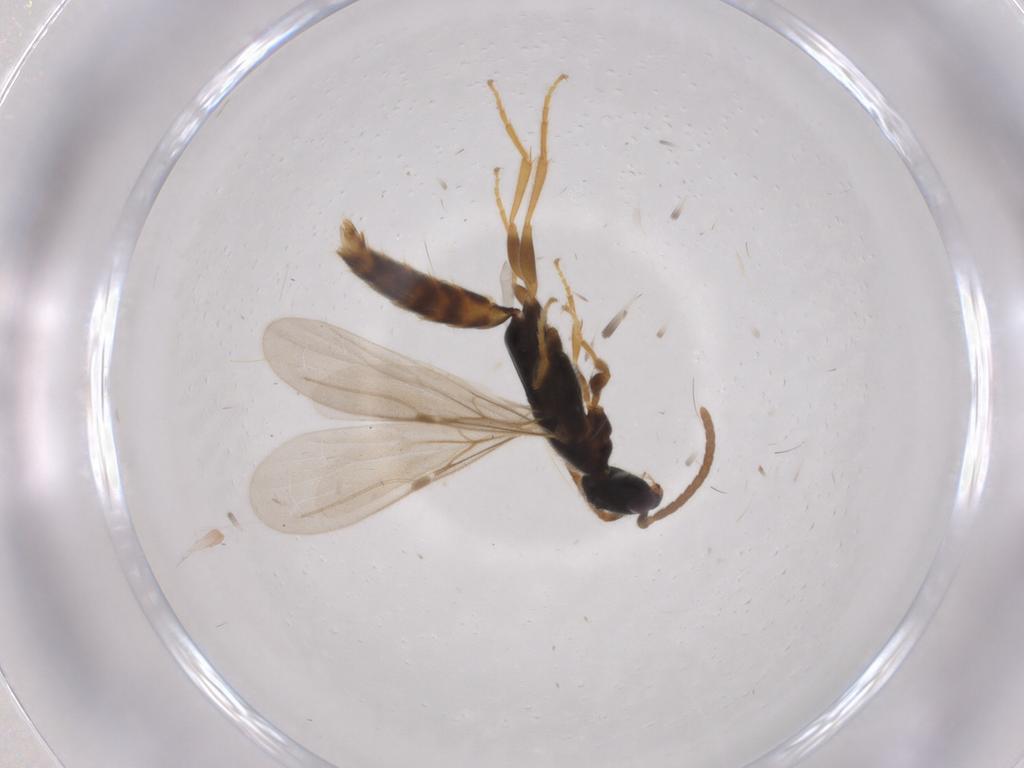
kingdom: Animalia
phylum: Arthropoda
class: Insecta
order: Hymenoptera
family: Bethylidae
